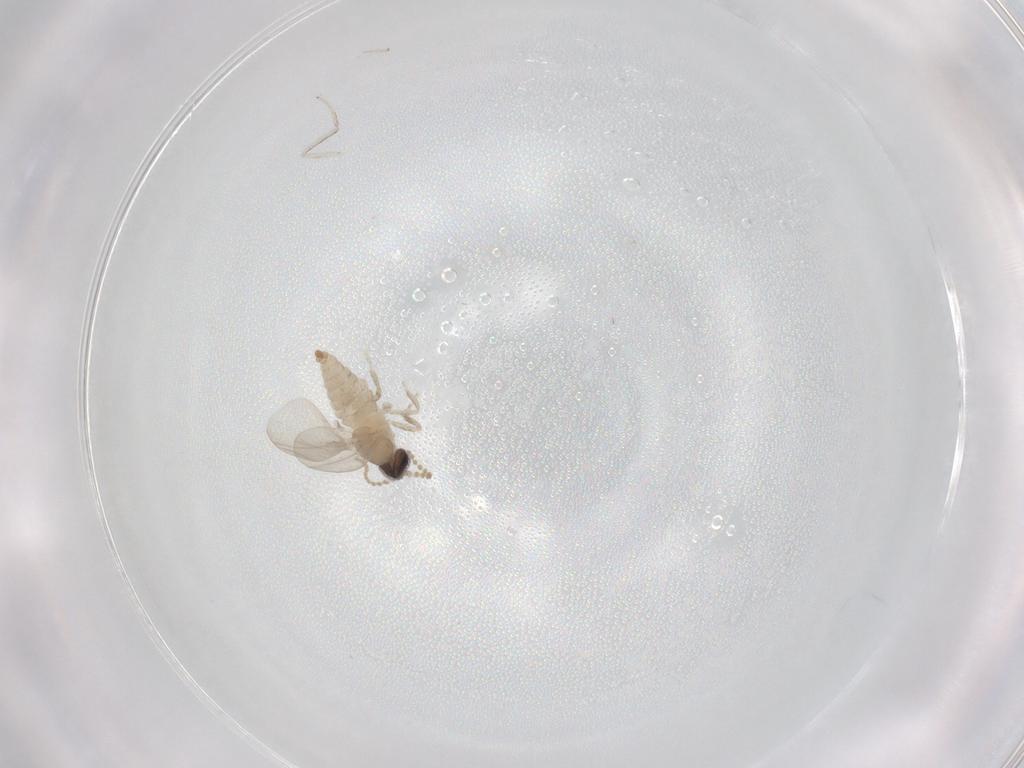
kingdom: Animalia
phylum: Arthropoda
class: Insecta
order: Diptera
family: Cecidomyiidae
